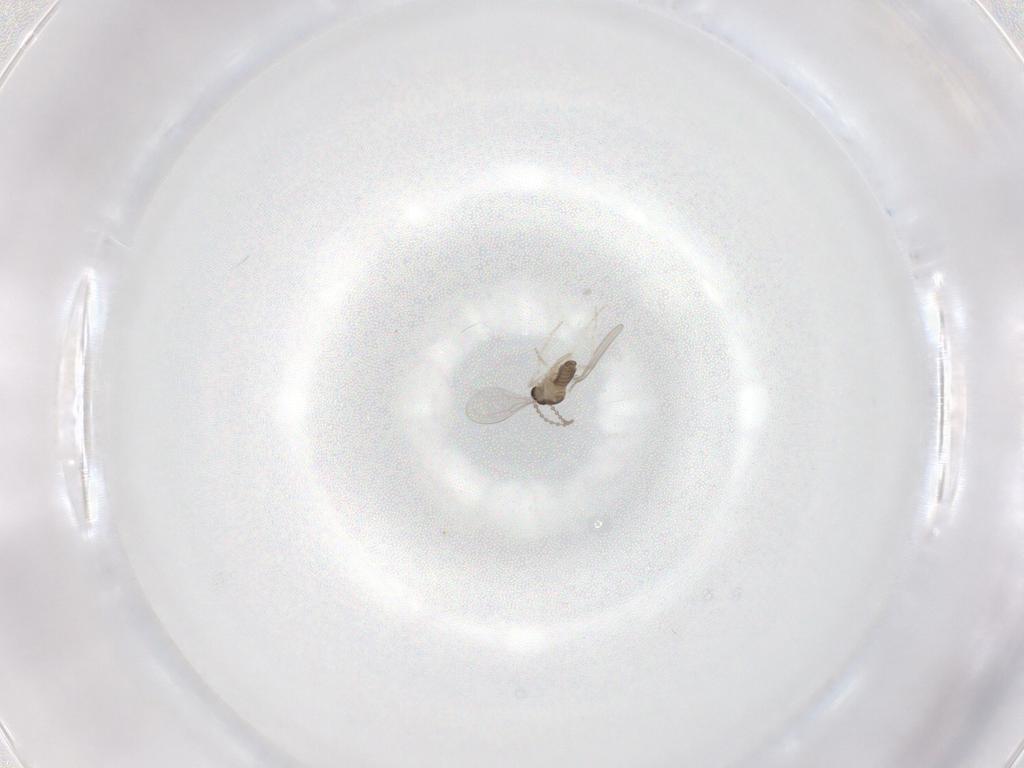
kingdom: Animalia
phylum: Arthropoda
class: Insecta
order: Diptera
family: Cecidomyiidae
